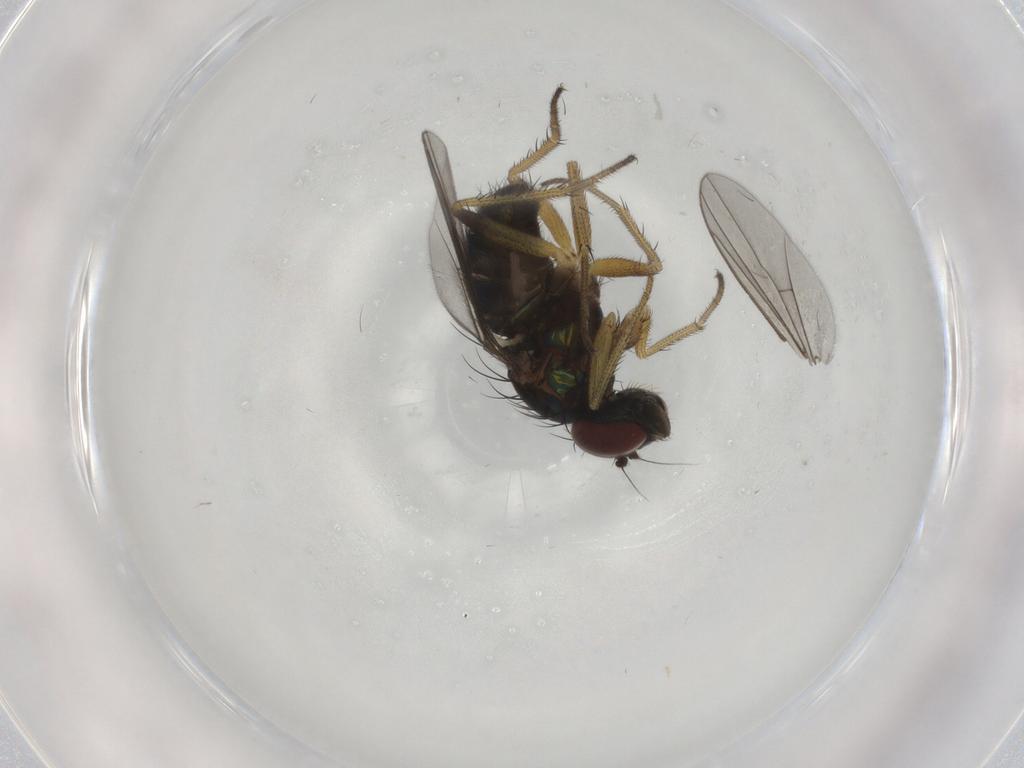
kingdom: Animalia
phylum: Arthropoda
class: Insecta
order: Diptera
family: Dolichopodidae
